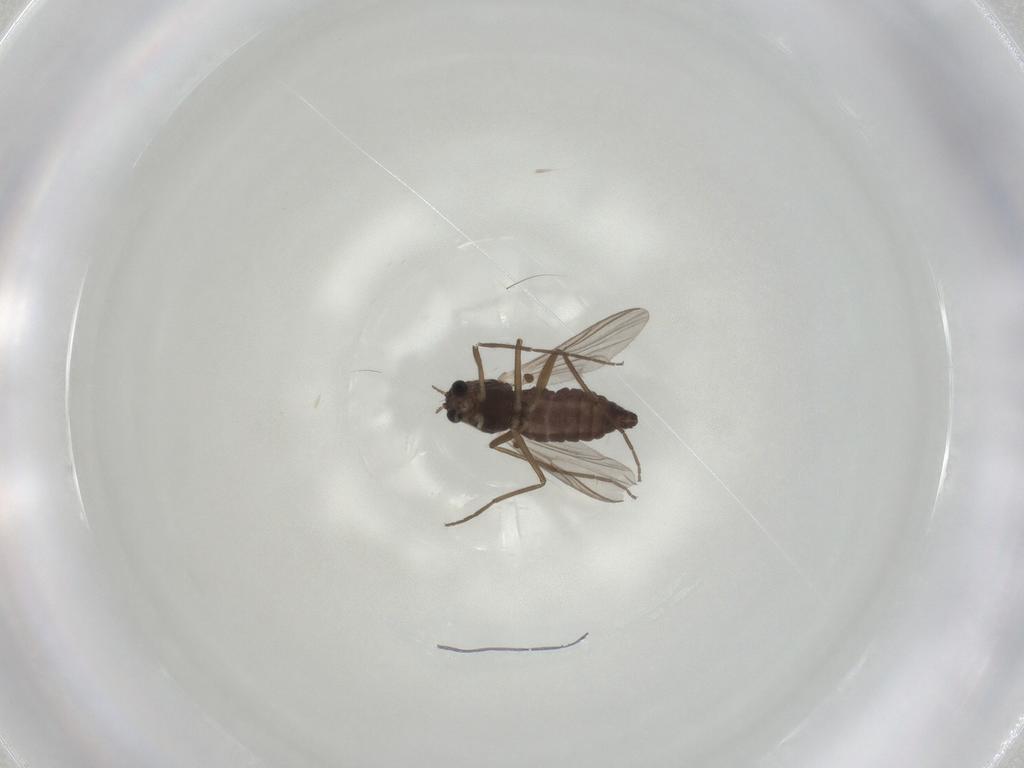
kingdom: Animalia
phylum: Arthropoda
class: Insecta
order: Diptera
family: Chironomidae
